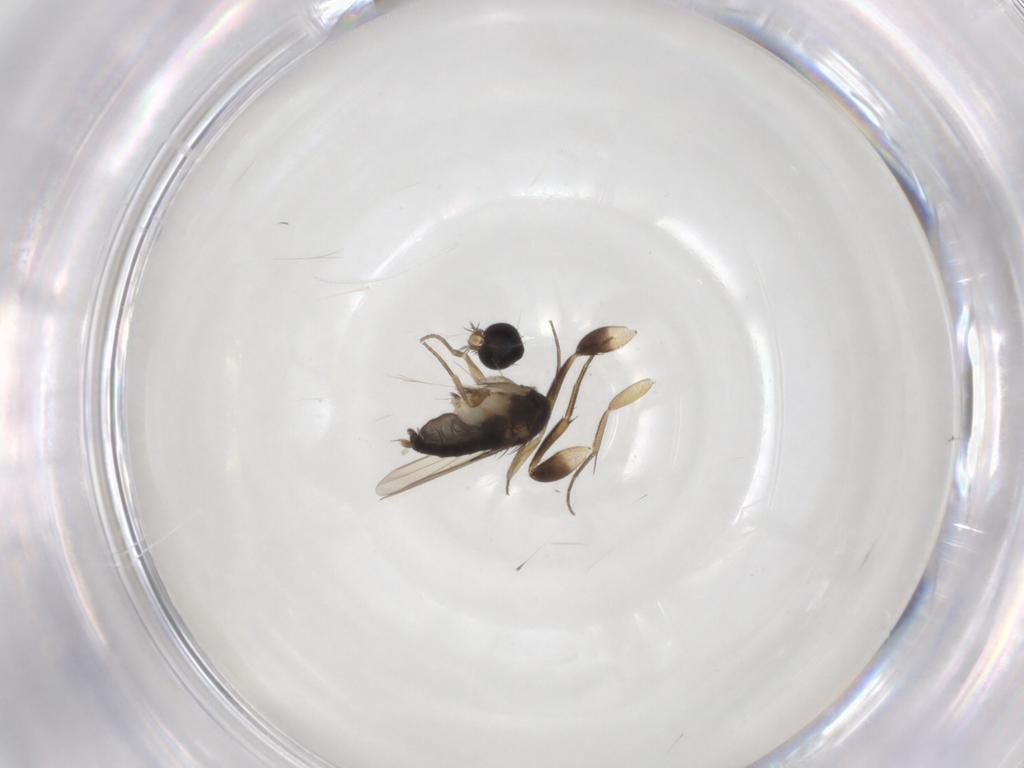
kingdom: Animalia
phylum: Arthropoda
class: Insecta
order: Diptera
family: Phoridae
